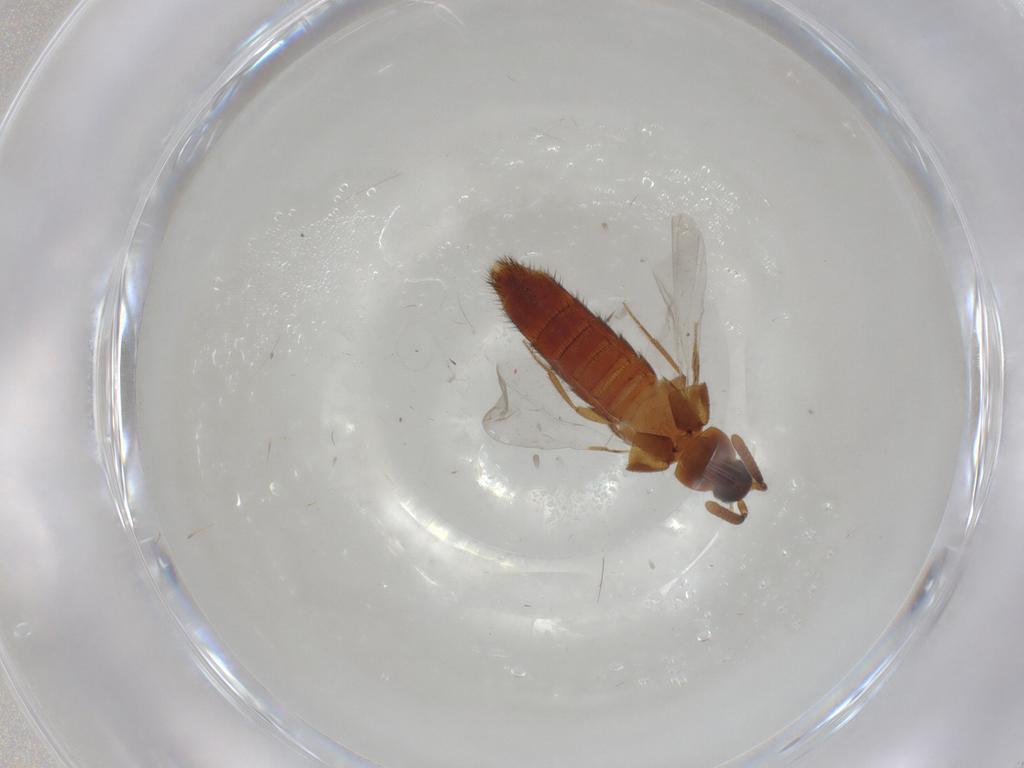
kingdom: Animalia
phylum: Arthropoda
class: Insecta
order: Coleoptera
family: Staphylinidae
